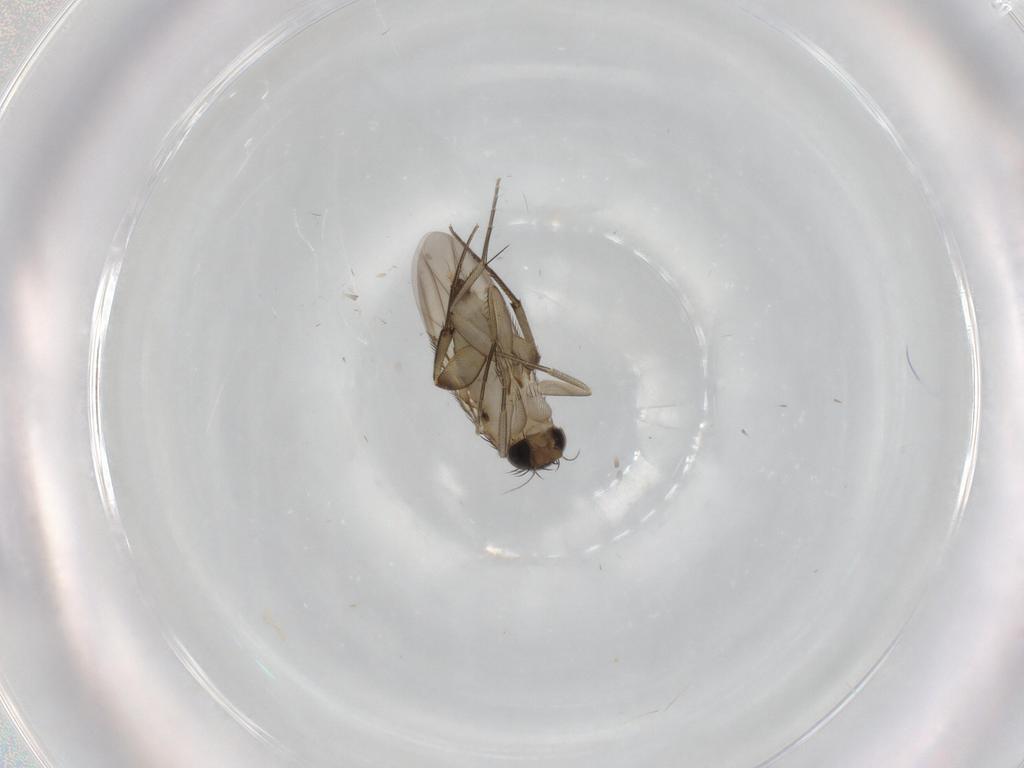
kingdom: Animalia
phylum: Arthropoda
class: Insecta
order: Diptera
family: Phoridae
